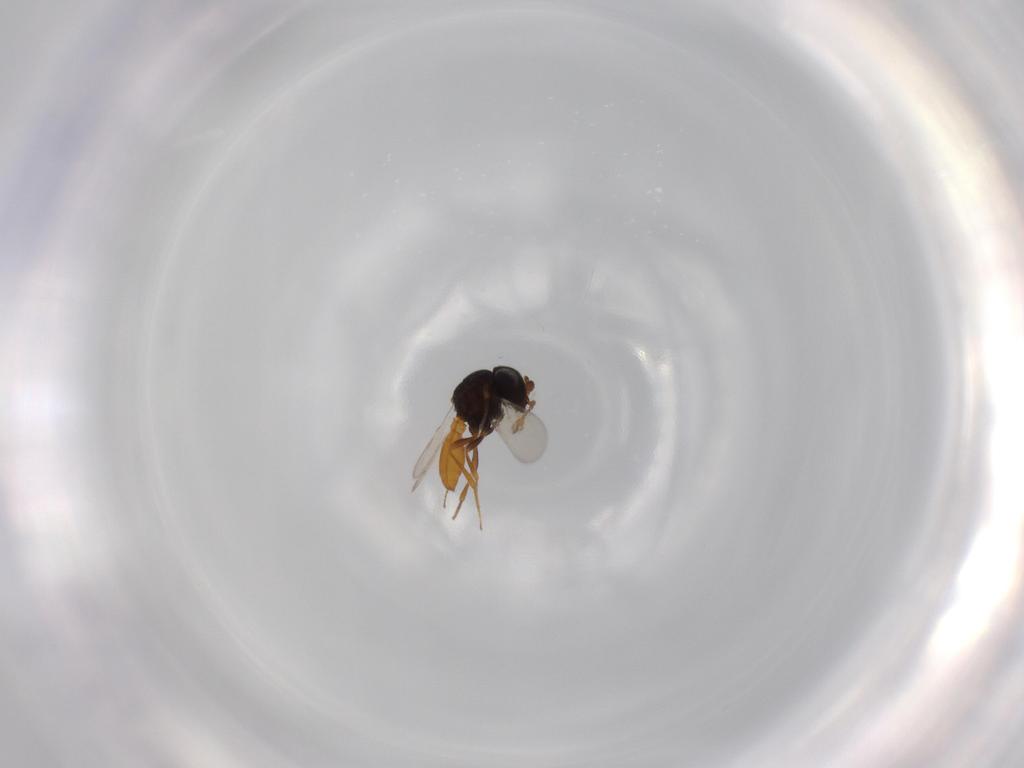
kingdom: Animalia
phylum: Arthropoda
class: Insecta
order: Hymenoptera
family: Scelionidae
